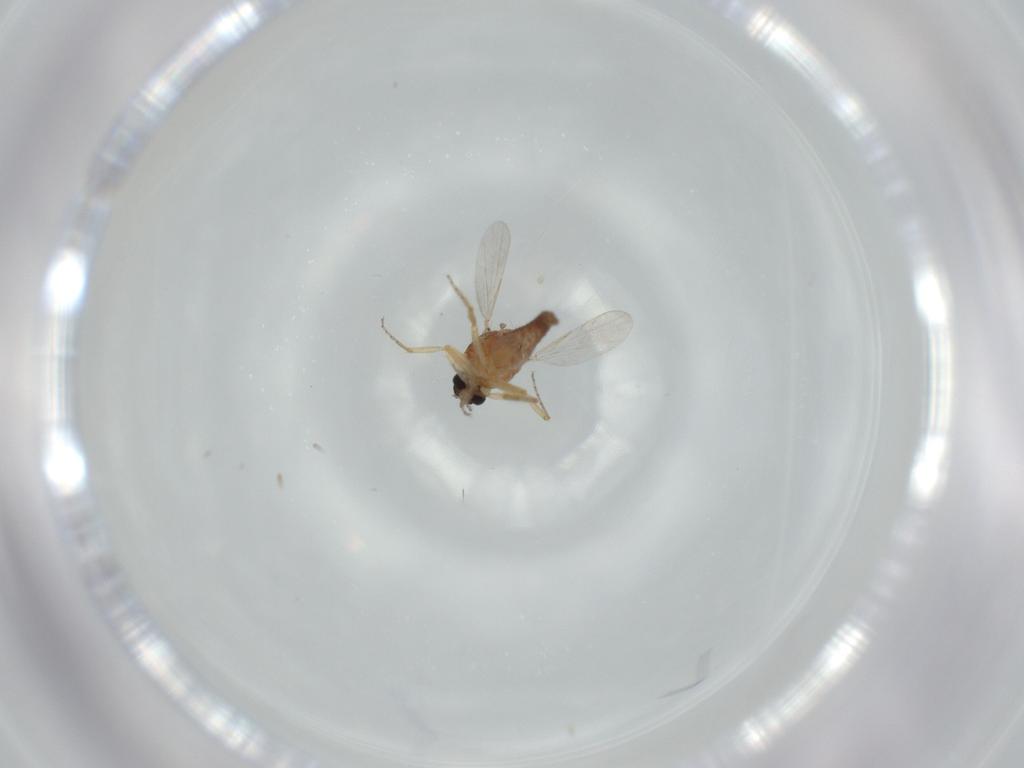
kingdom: Animalia
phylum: Arthropoda
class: Insecta
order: Diptera
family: Ceratopogonidae
